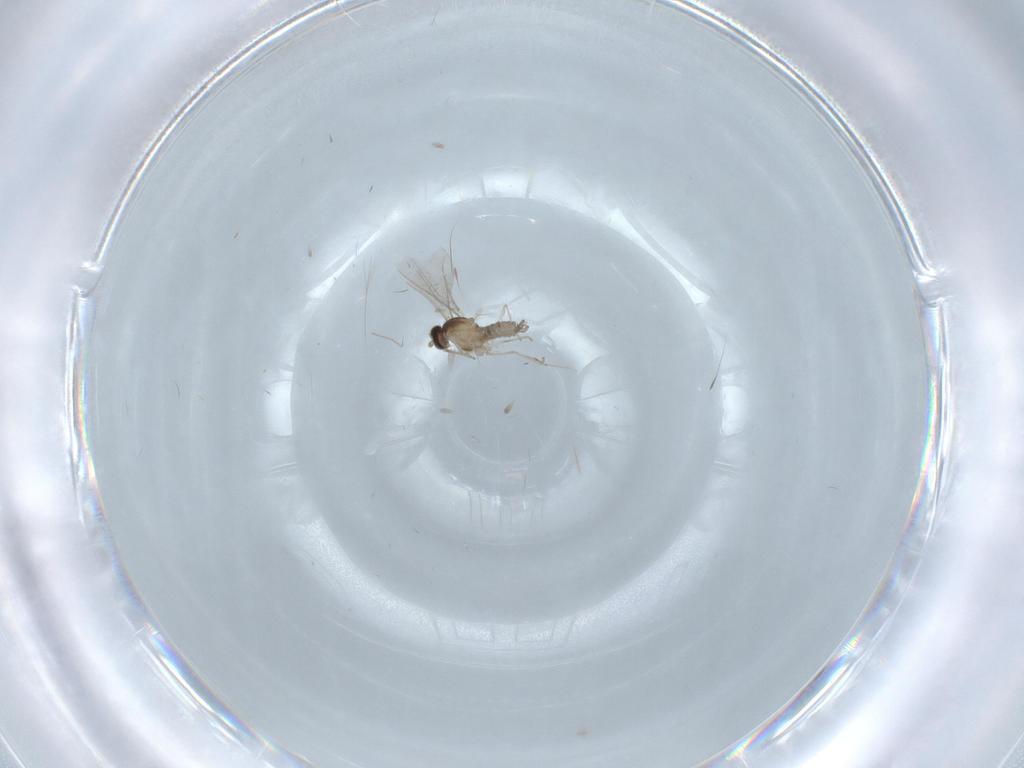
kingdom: Animalia
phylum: Arthropoda
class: Insecta
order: Diptera
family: Cecidomyiidae
